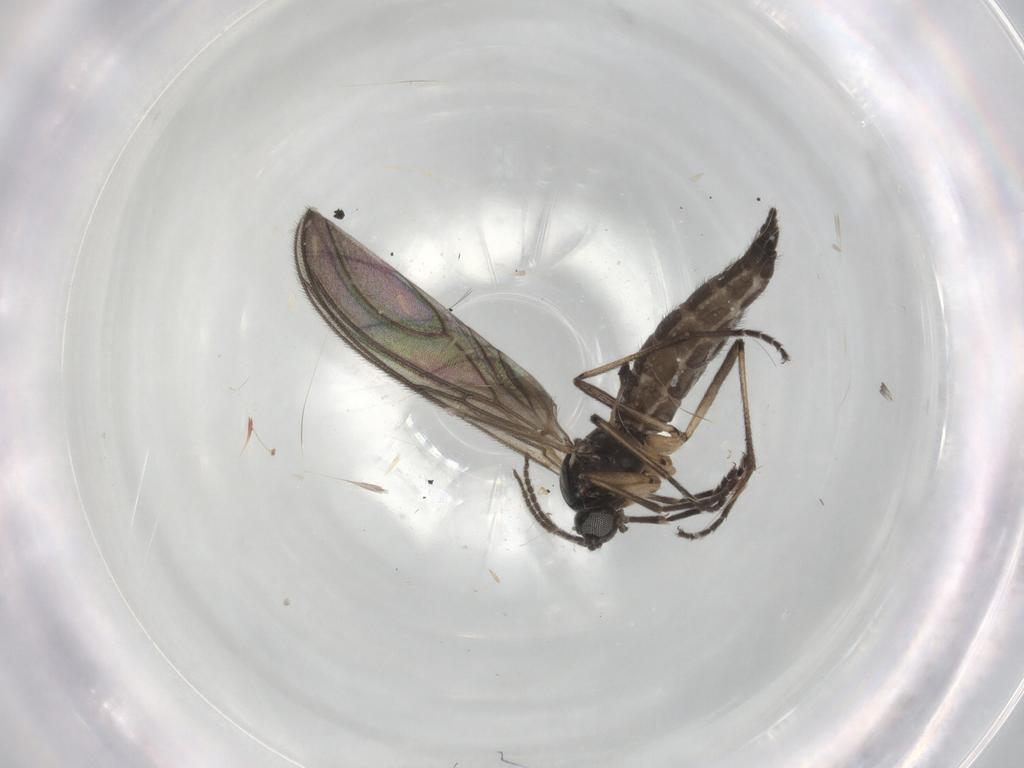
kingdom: Animalia
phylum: Arthropoda
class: Insecta
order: Diptera
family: Sciaridae
